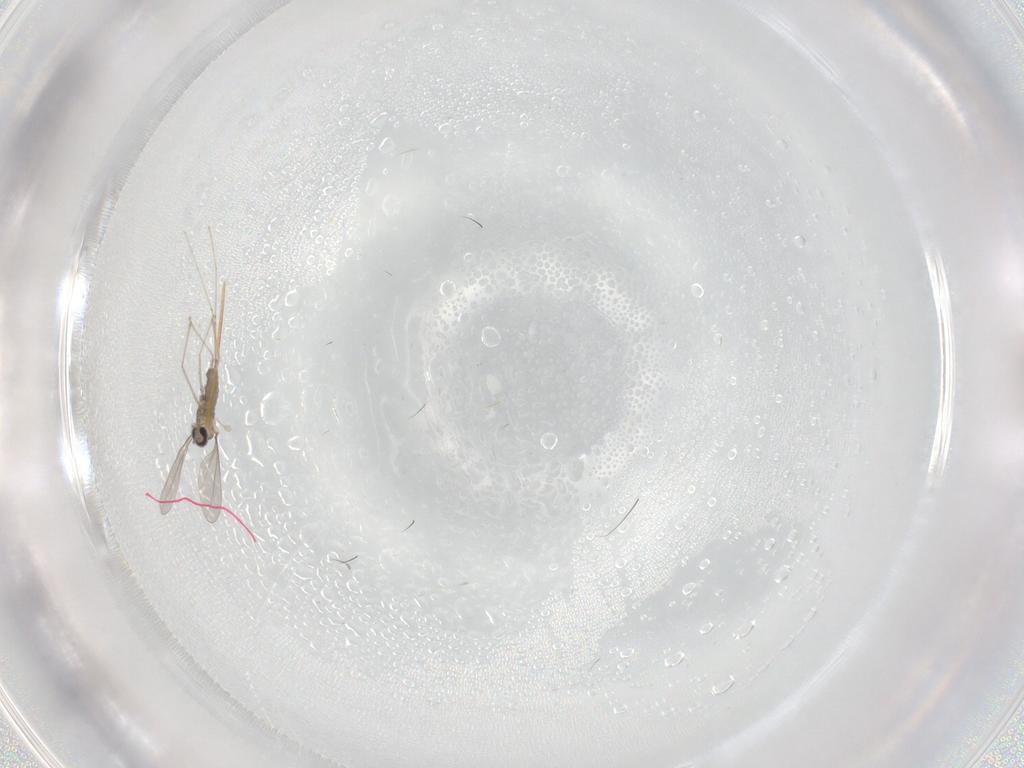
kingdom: Animalia
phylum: Arthropoda
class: Insecta
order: Diptera
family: Cecidomyiidae
